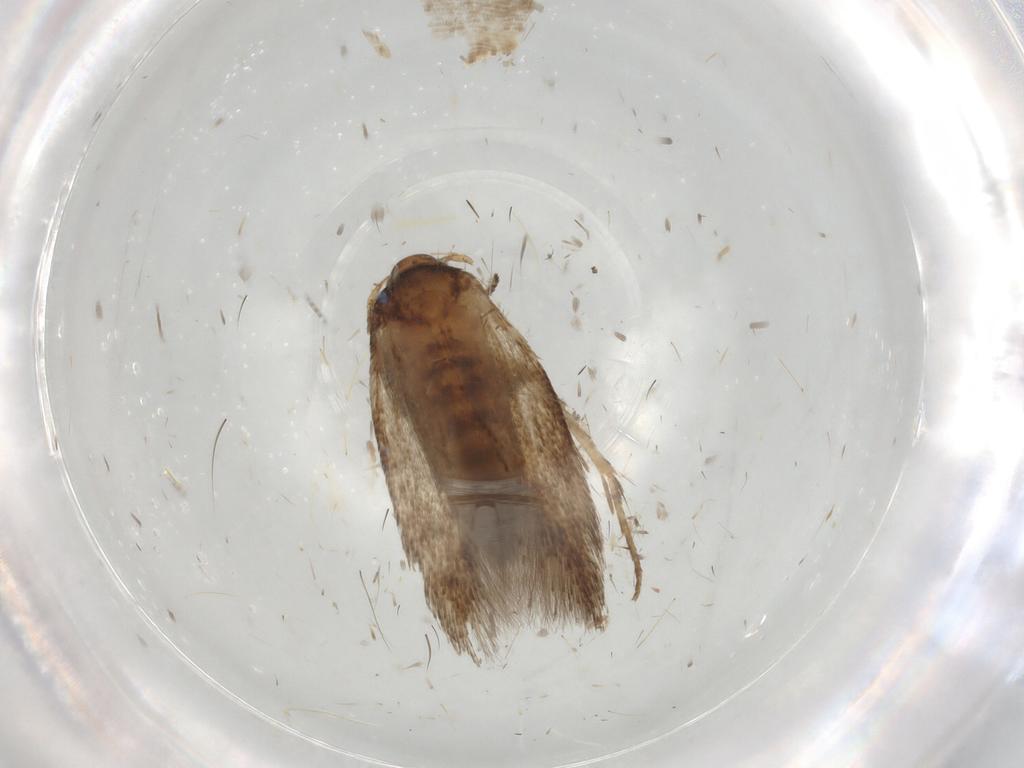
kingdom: Animalia
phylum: Arthropoda
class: Insecta
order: Lepidoptera
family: Cosmopterigidae
